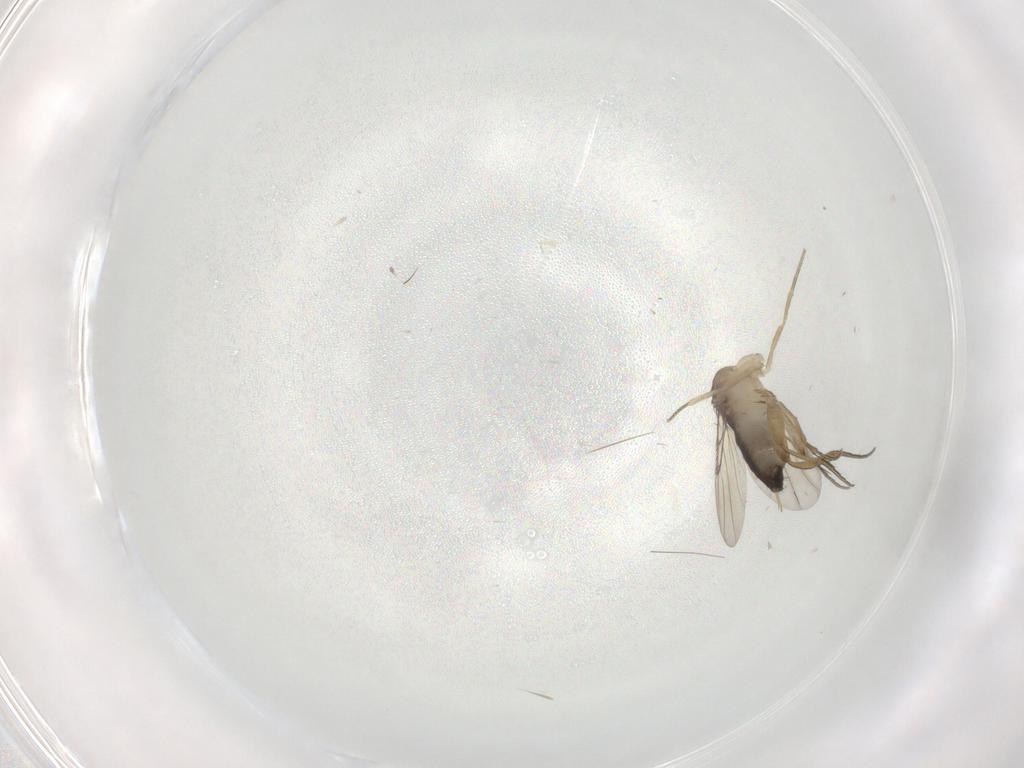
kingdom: Animalia
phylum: Arthropoda
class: Insecta
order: Diptera
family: Phoridae
